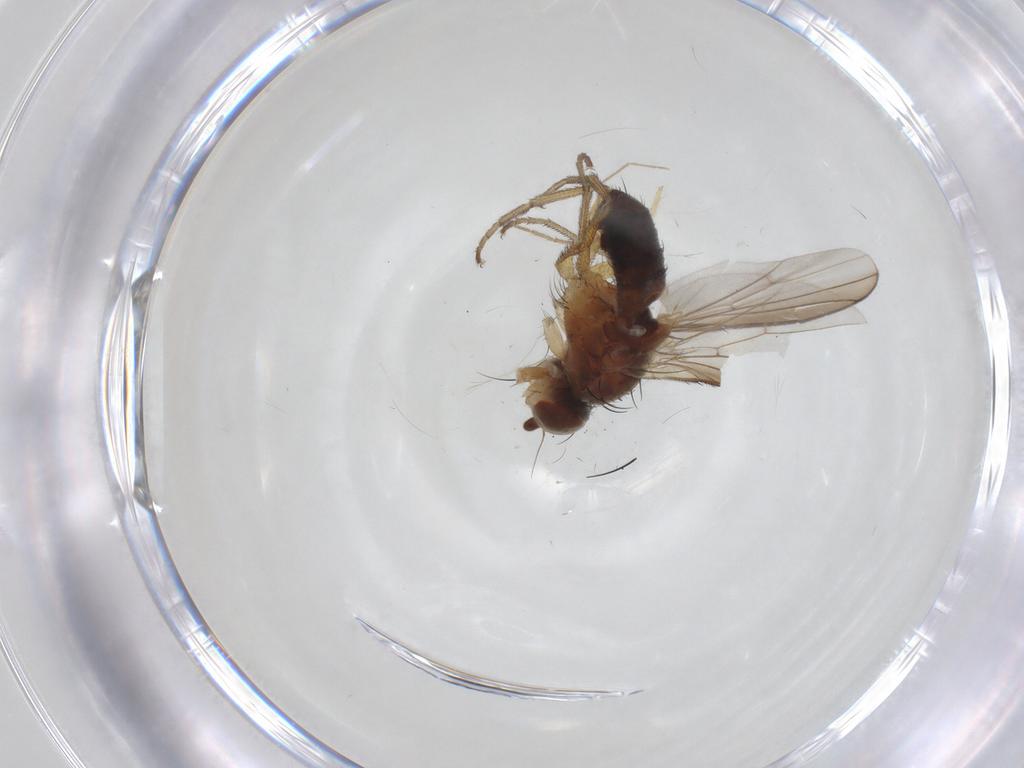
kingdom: Animalia
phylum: Arthropoda
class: Insecta
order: Diptera
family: Heleomyzidae
